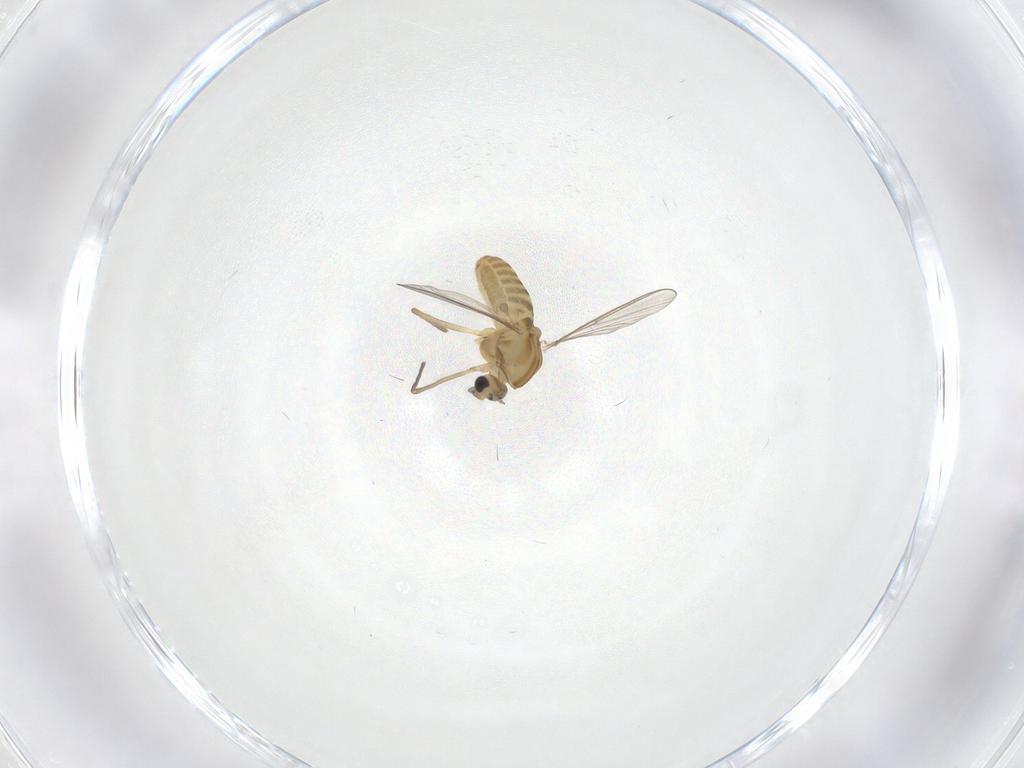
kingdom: Animalia
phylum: Arthropoda
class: Insecta
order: Diptera
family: Chironomidae
